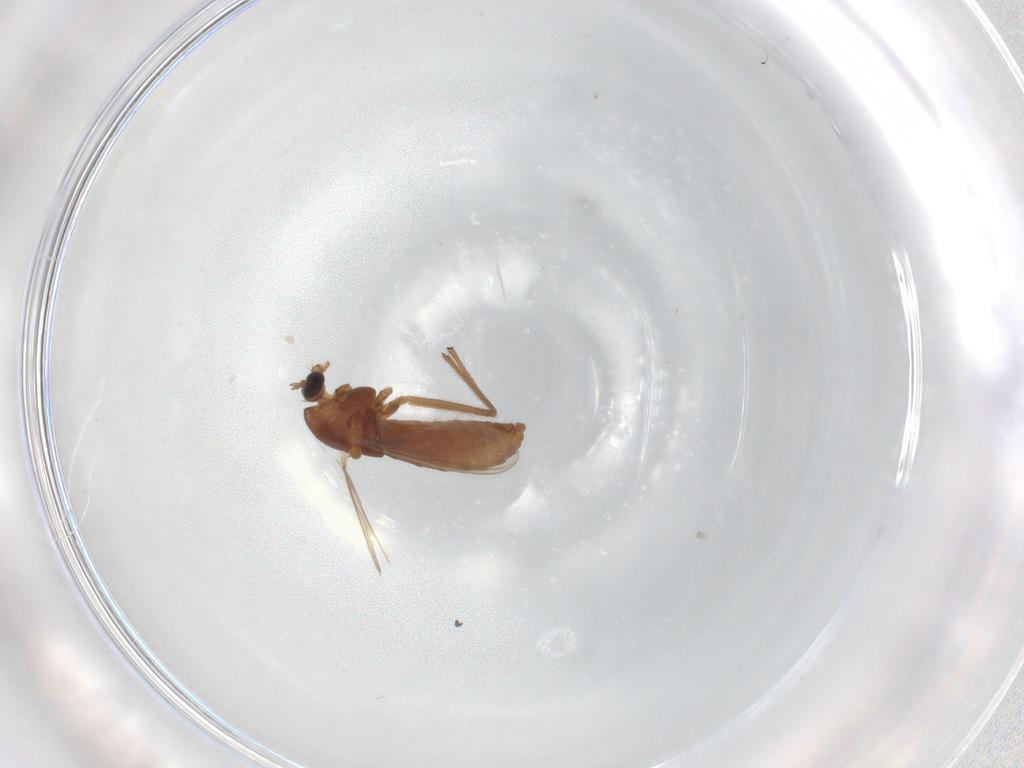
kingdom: Animalia
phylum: Arthropoda
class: Insecta
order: Diptera
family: Chironomidae
